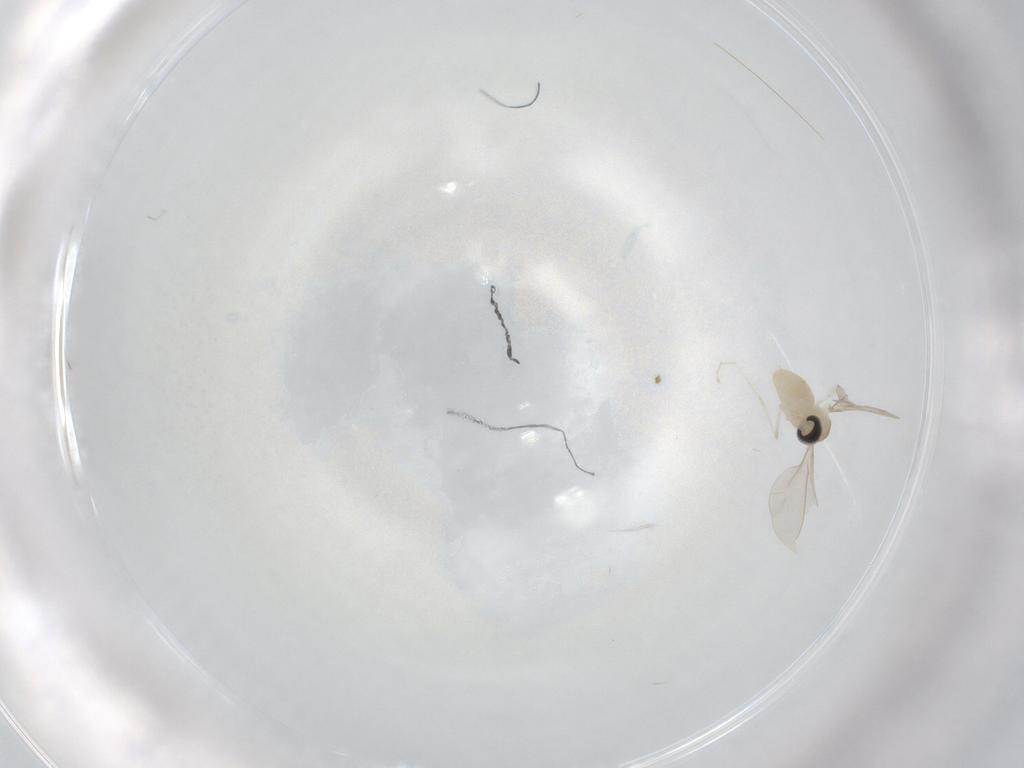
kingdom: Animalia
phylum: Arthropoda
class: Insecta
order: Diptera
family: Cecidomyiidae
